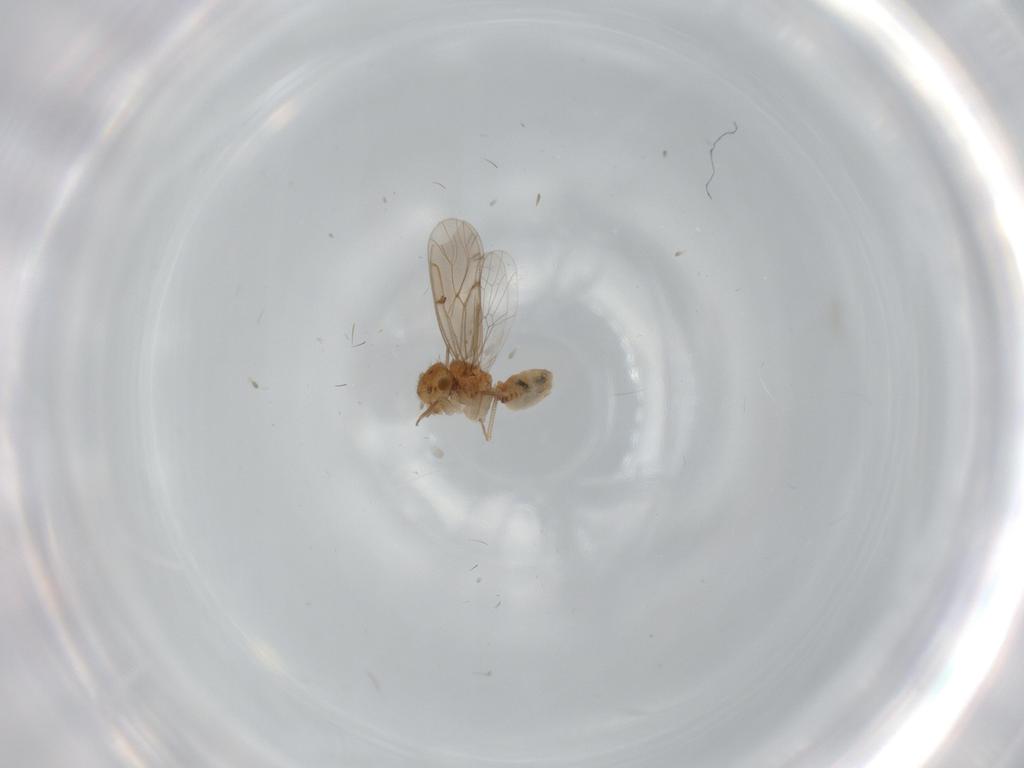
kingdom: Animalia
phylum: Arthropoda
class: Insecta
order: Psocodea
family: Ectopsocidae
